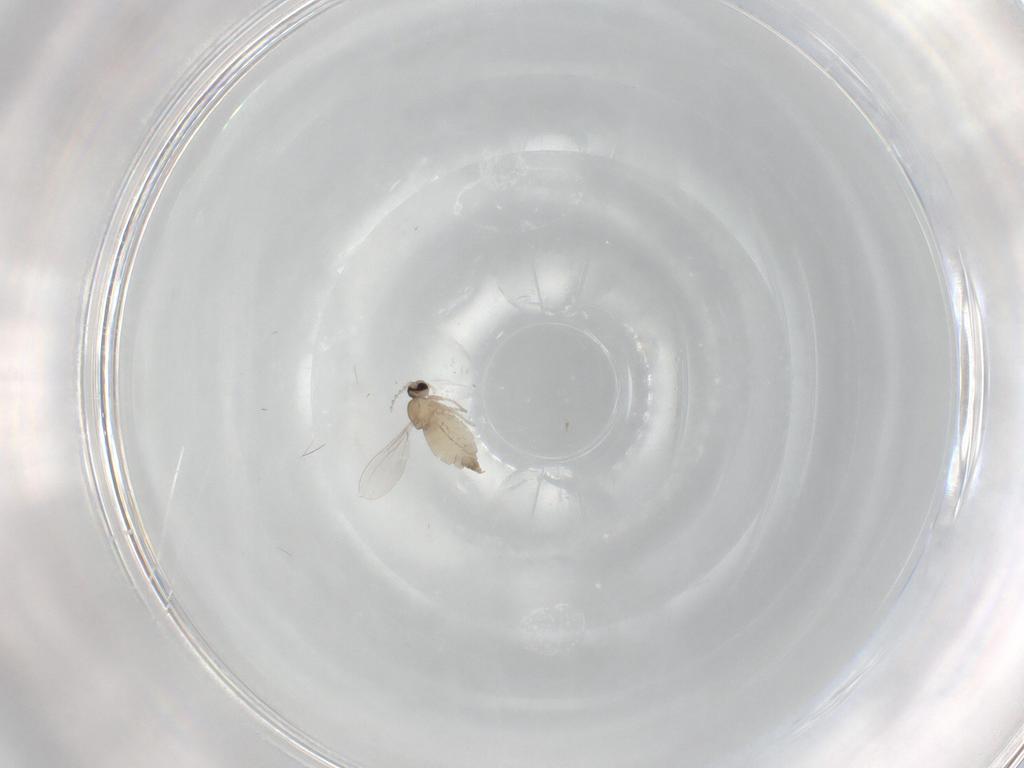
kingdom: Animalia
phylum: Arthropoda
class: Insecta
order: Diptera
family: Cecidomyiidae
